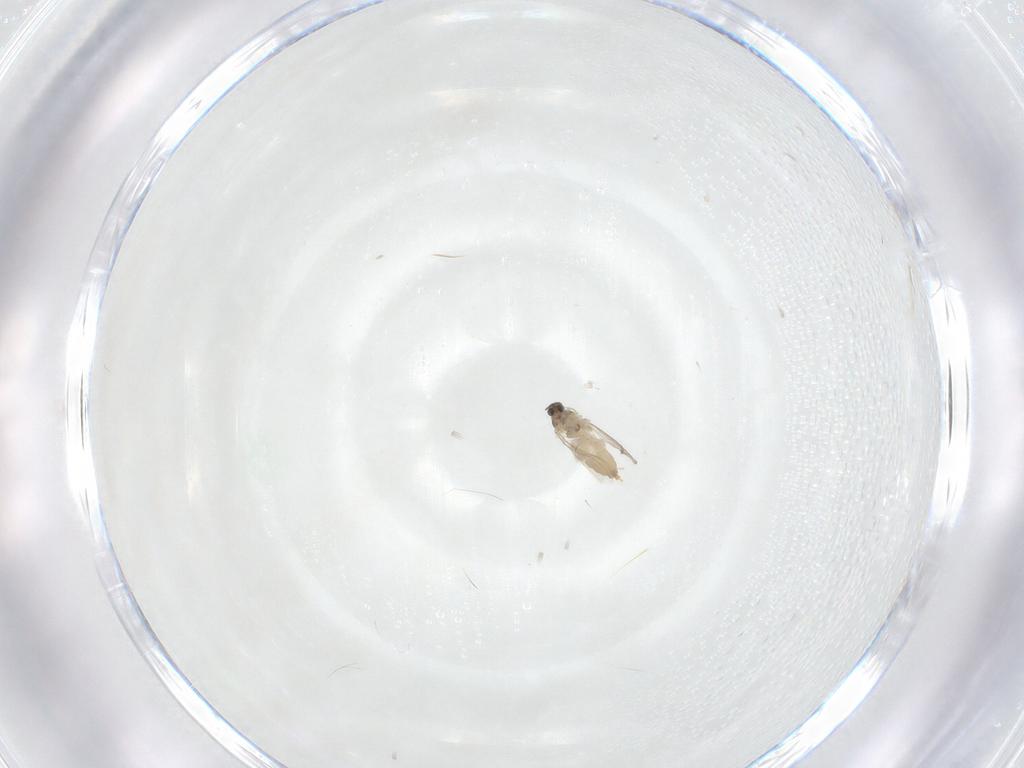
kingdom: Animalia
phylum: Arthropoda
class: Insecta
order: Diptera
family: Cecidomyiidae
